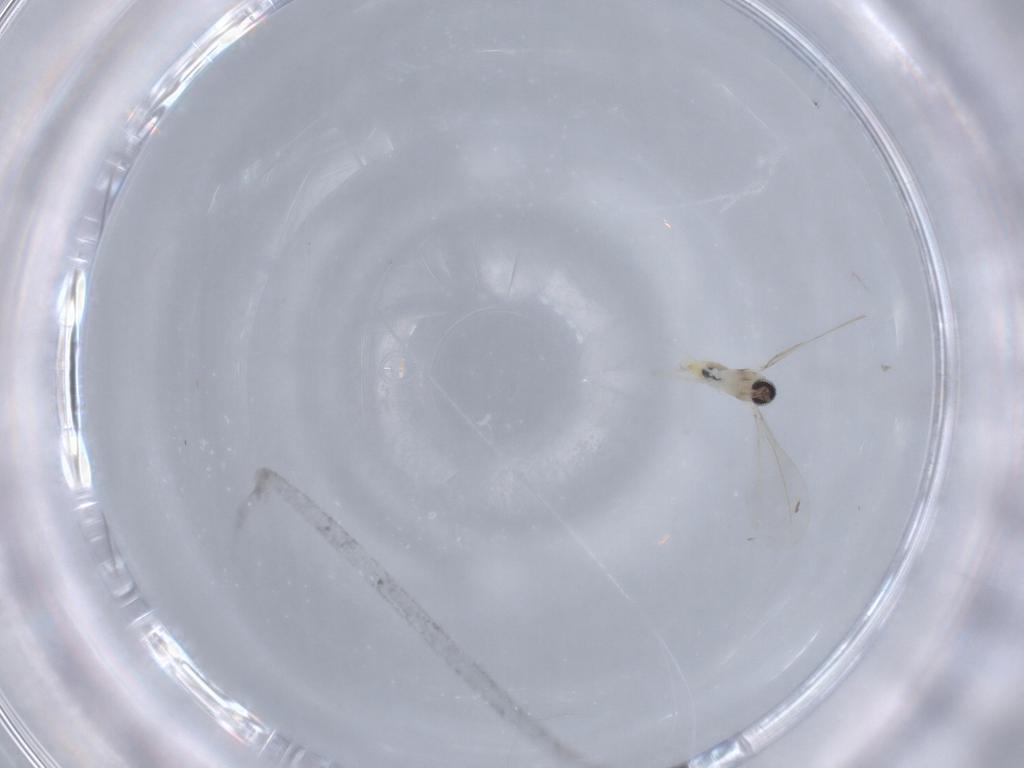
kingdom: Animalia
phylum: Arthropoda
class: Insecta
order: Diptera
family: Cecidomyiidae
